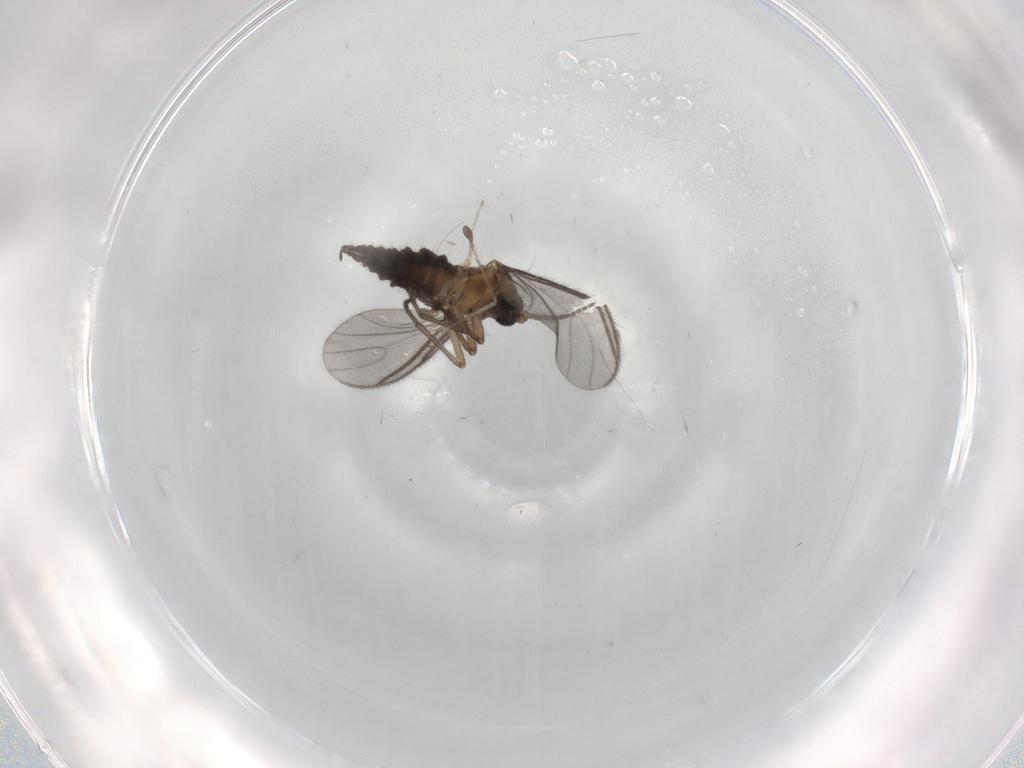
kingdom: Animalia
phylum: Arthropoda
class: Insecta
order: Diptera
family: Sciaridae
